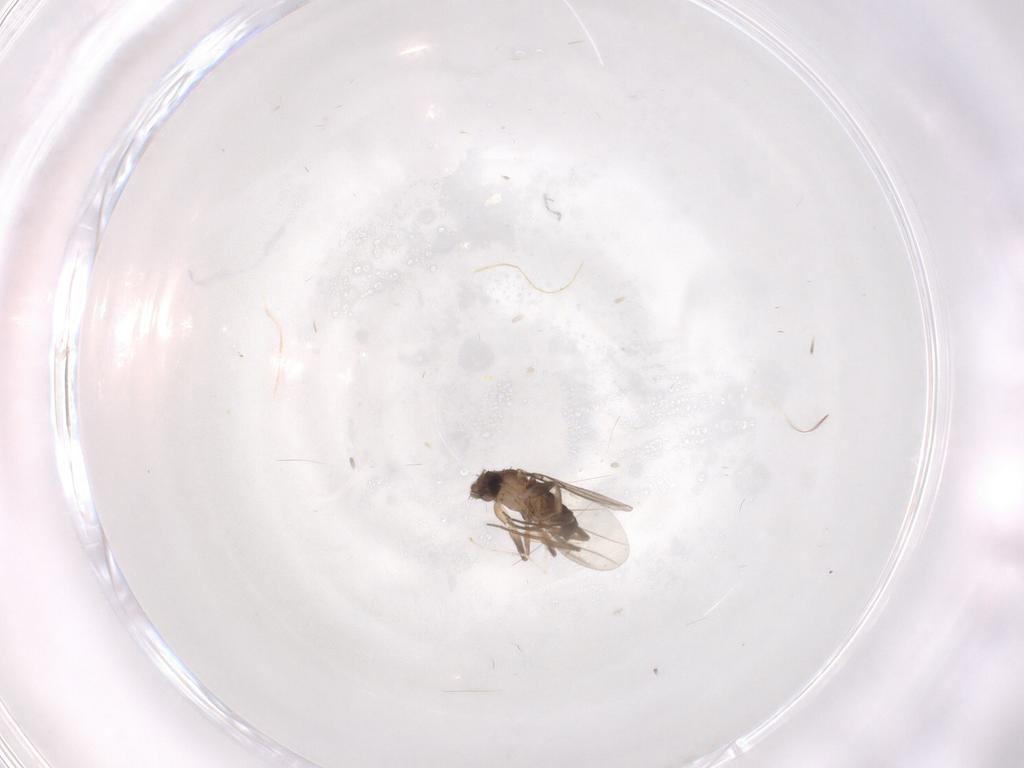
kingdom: Animalia
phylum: Arthropoda
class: Insecta
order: Diptera
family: Phoridae
